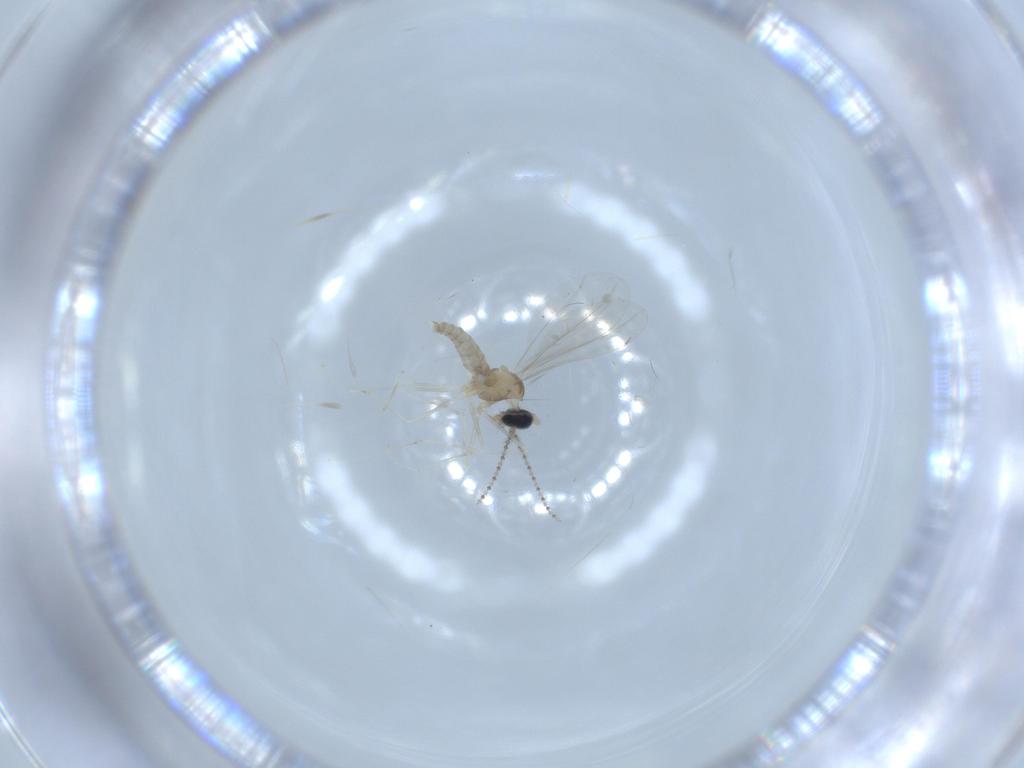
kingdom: Animalia
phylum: Arthropoda
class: Insecta
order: Diptera
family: Cecidomyiidae
